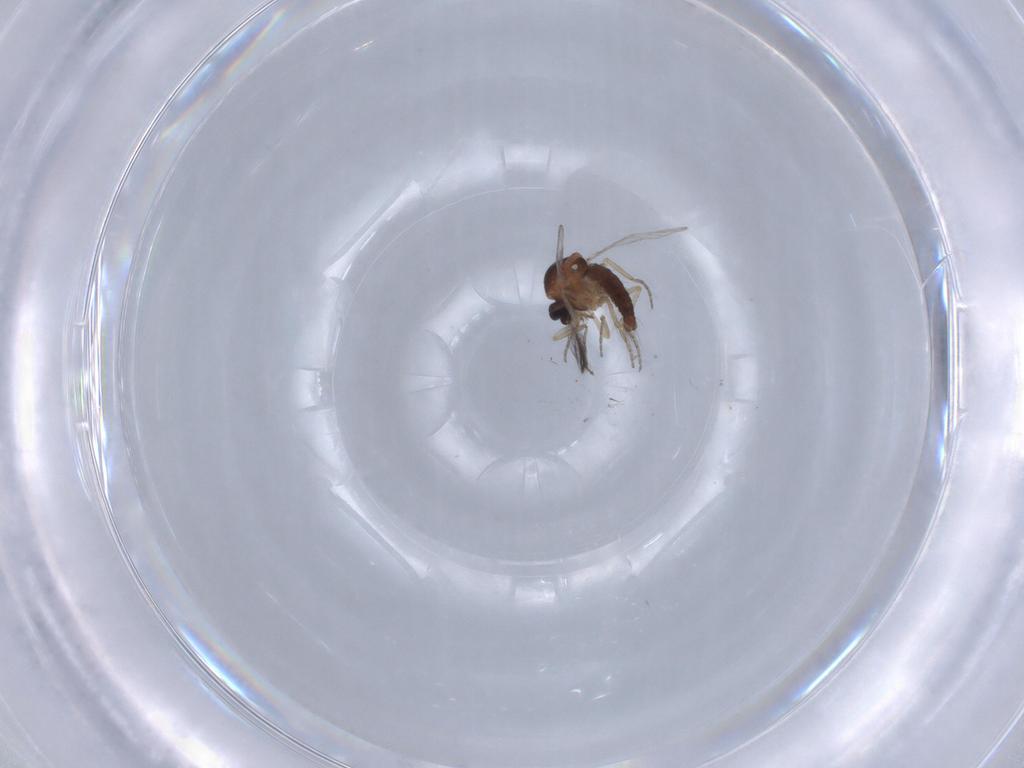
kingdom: Animalia
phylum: Arthropoda
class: Insecta
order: Diptera
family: Ceratopogonidae
